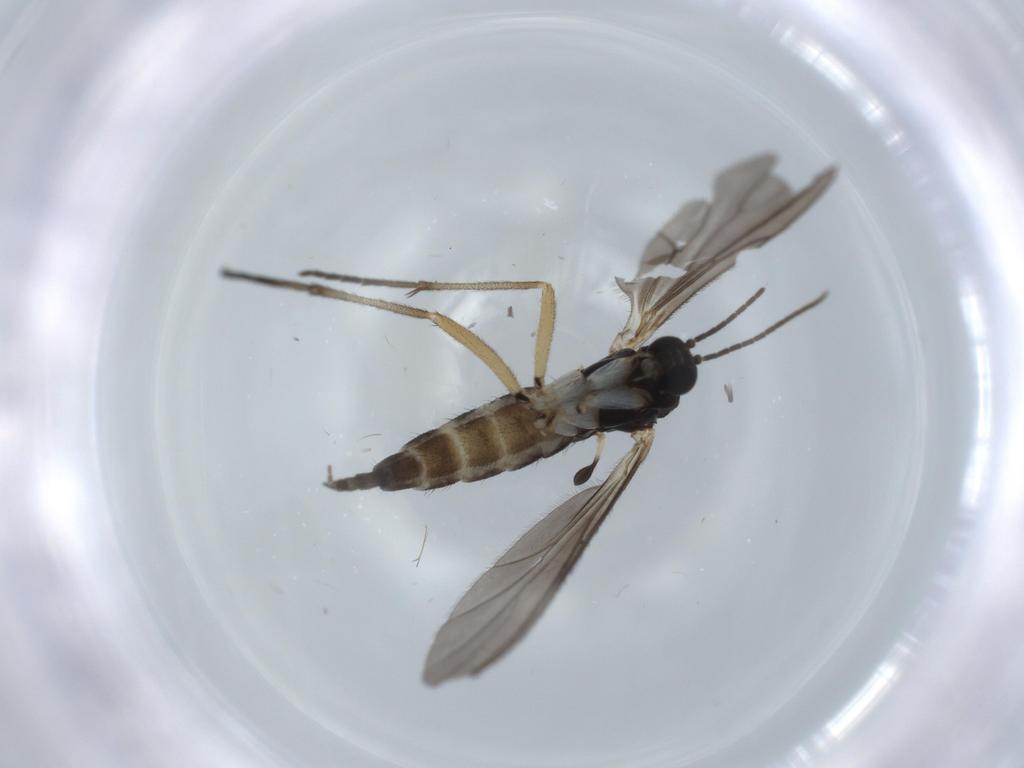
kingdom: Animalia
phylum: Arthropoda
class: Insecta
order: Diptera
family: Sciaridae
